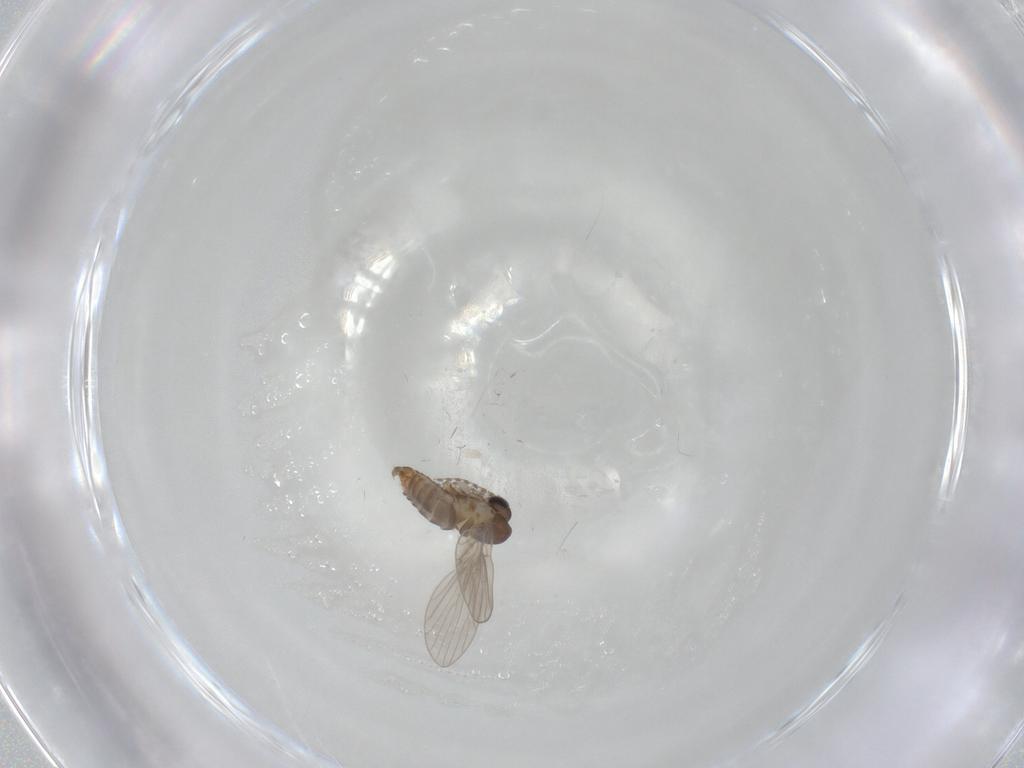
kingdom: Animalia
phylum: Arthropoda
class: Insecta
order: Diptera
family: Ceratopogonidae
